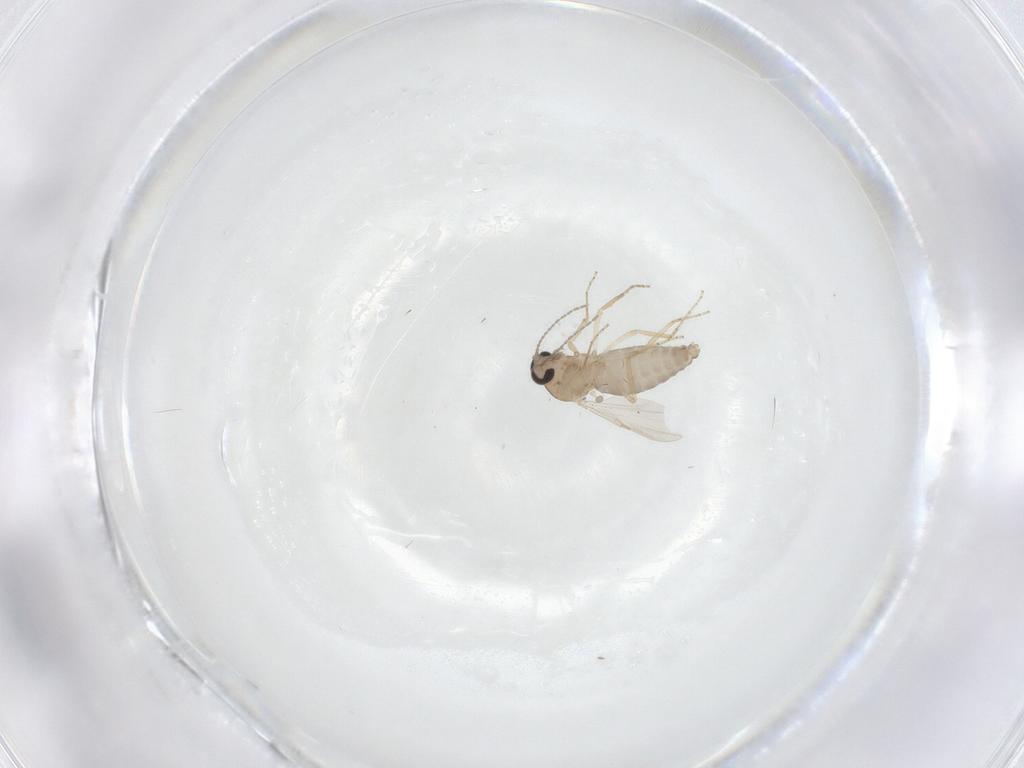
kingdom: Animalia
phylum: Arthropoda
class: Insecta
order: Diptera
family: Ceratopogonidae
